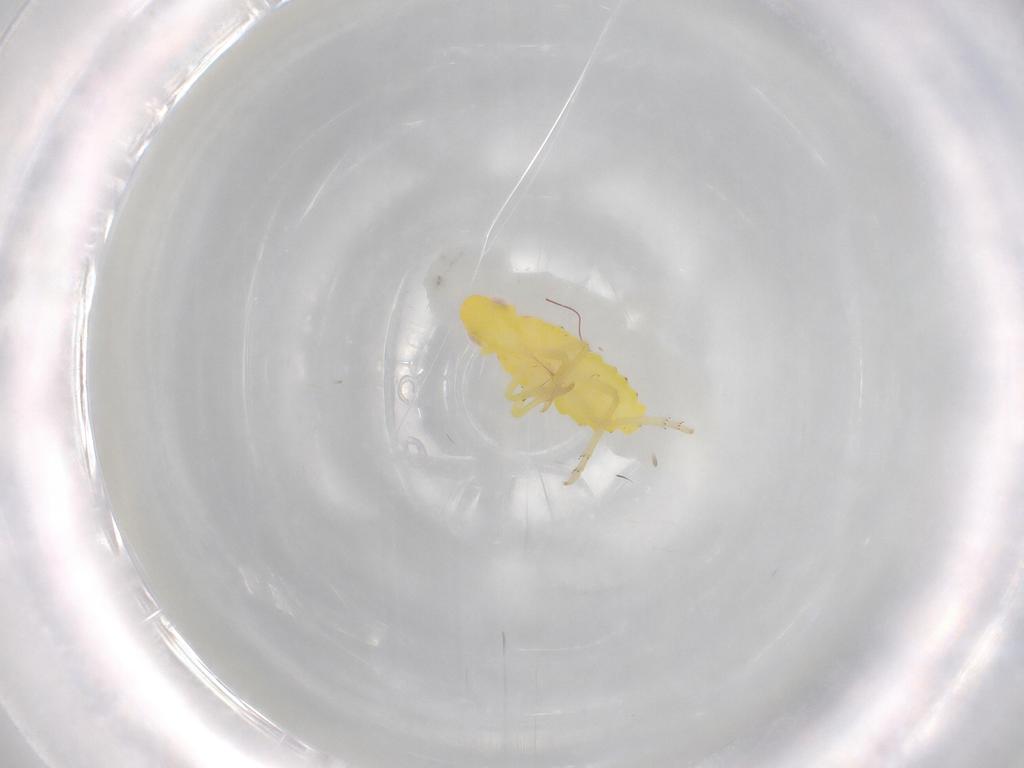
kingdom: Animalia
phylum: Arthropoda
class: Insecta
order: Hemiptera
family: Tropiduchidae
